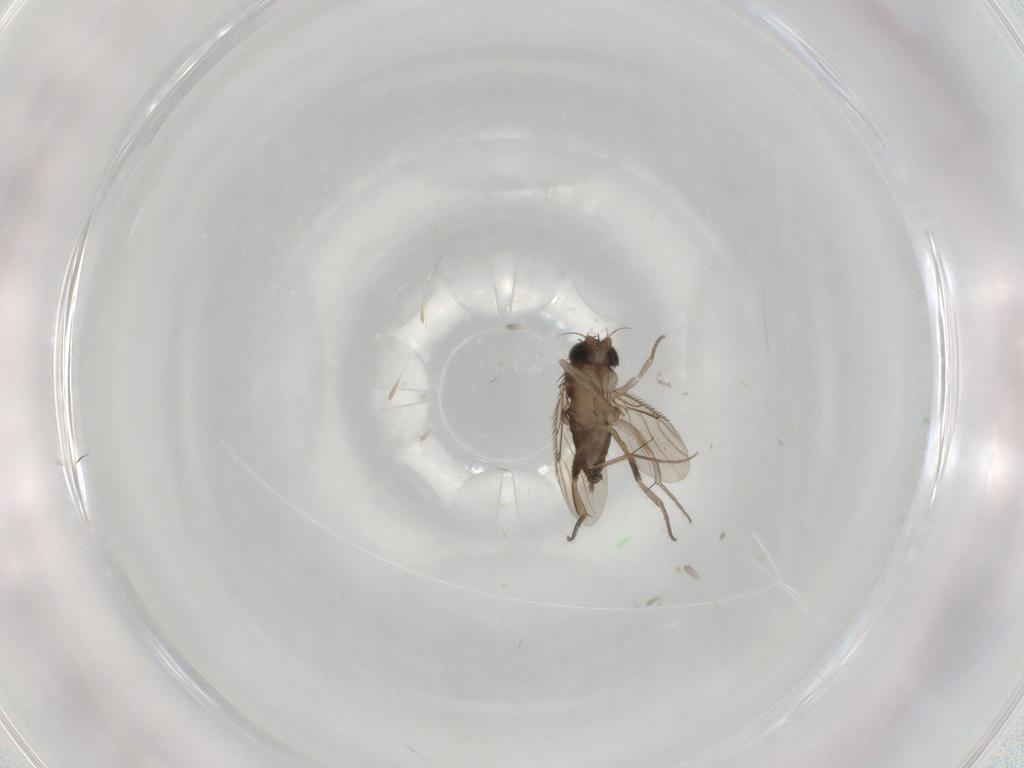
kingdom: Animalia
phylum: Arthropoda
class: Insecta
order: Diptera
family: Phoridae
